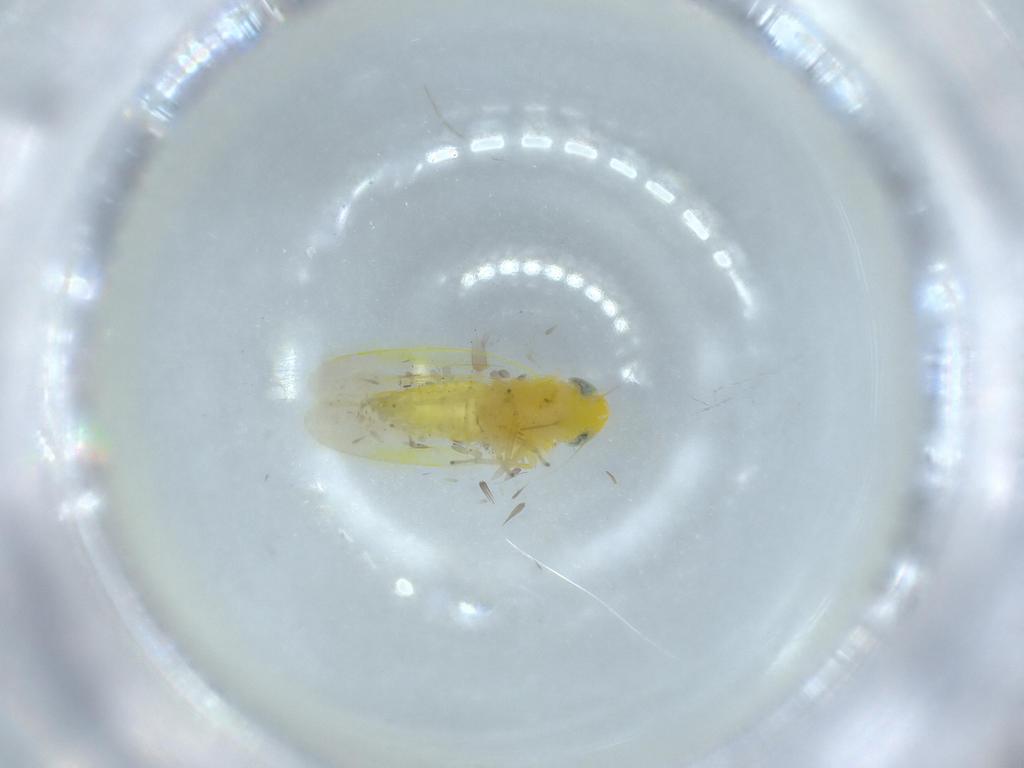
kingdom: Animalia
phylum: Arthropoda
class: Insecta
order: Hemiptera
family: Cicadellidae
